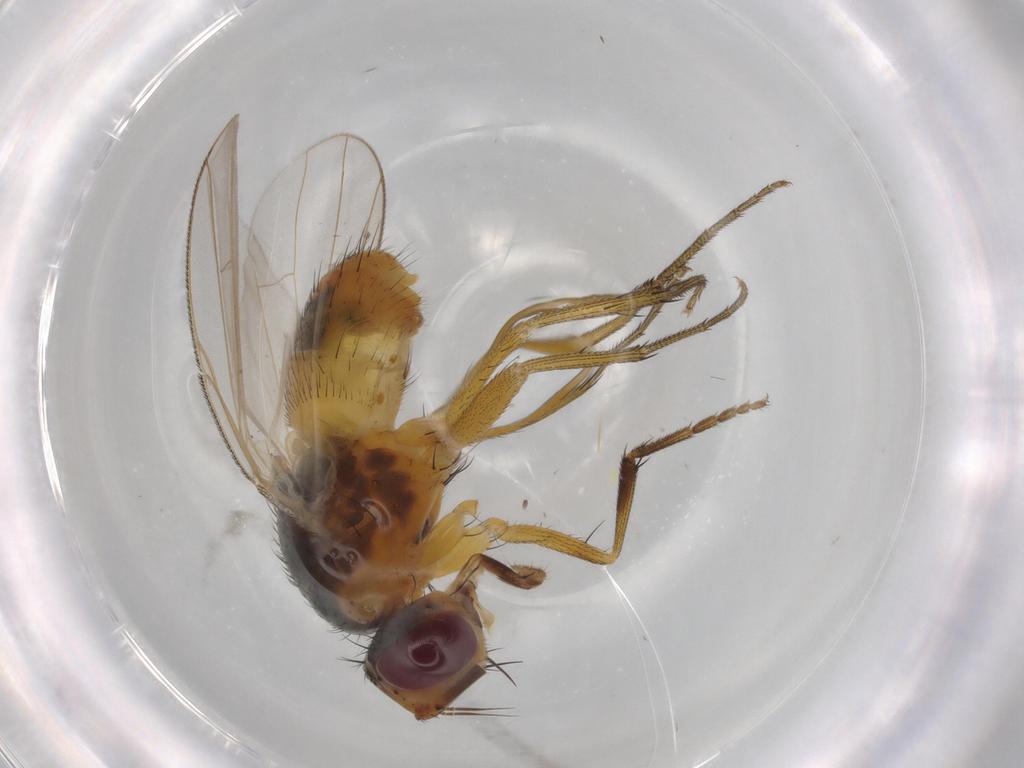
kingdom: Animalia
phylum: Arthropoda
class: Insecta
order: Diptera
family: Muscidae
